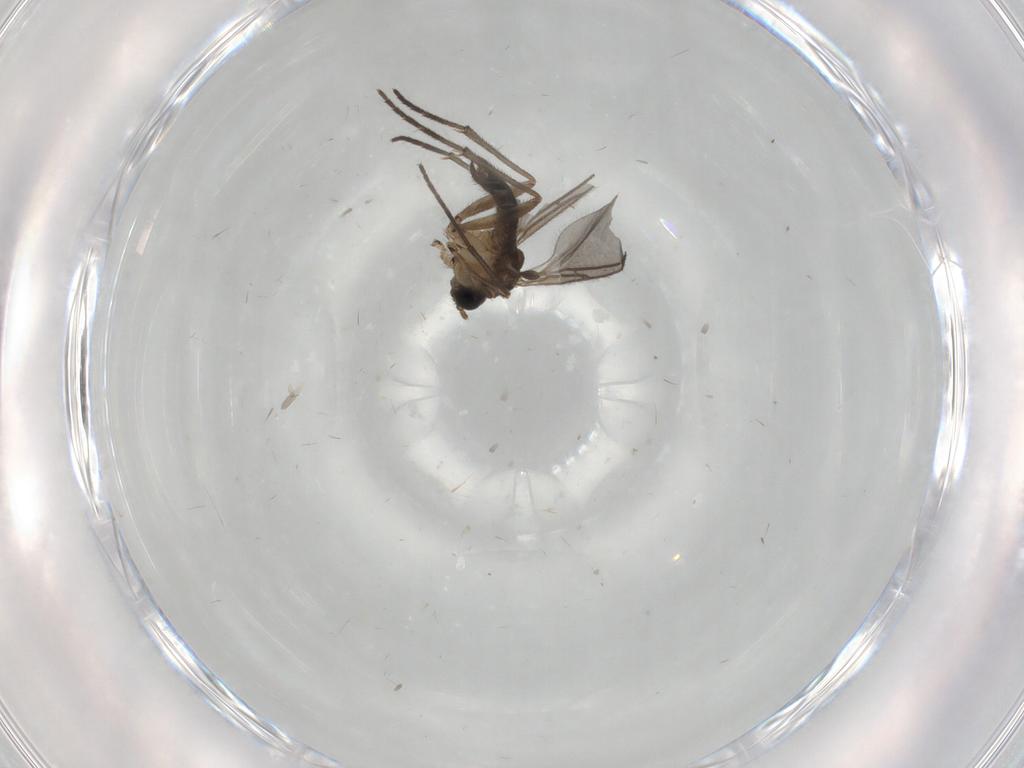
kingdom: Animalia
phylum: Arthropoda
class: Insecta
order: Diptera
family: Sciaridae
